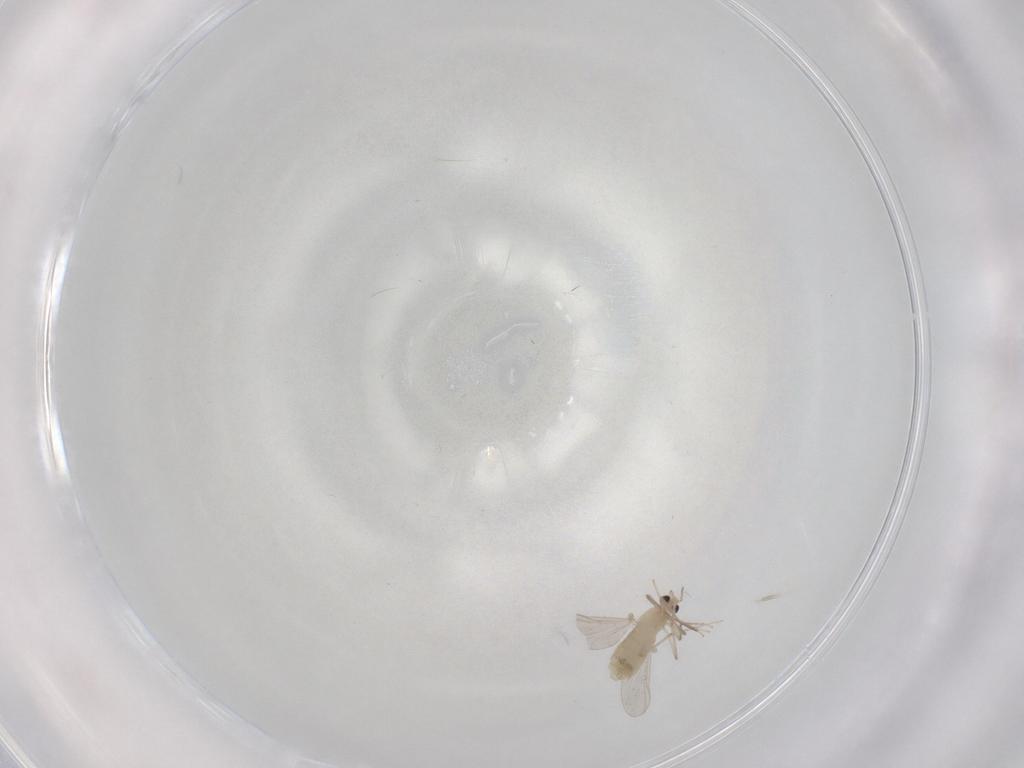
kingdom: Animalia
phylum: Arthropoda
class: Insecta
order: Diptera
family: Chironomidae
